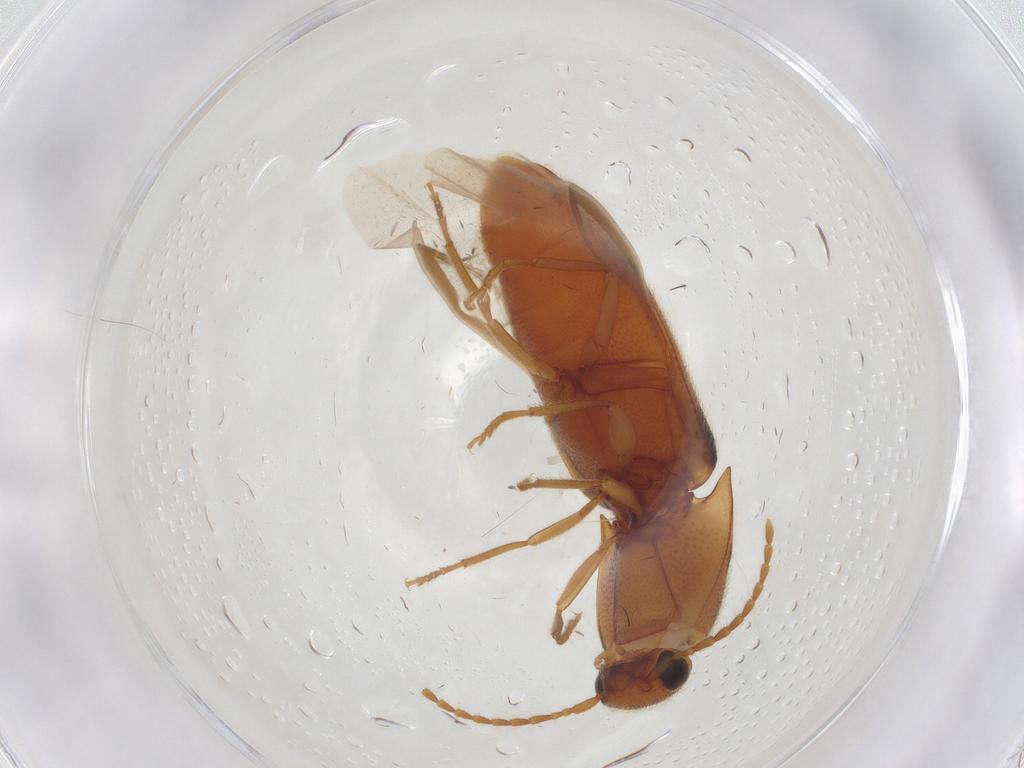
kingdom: Animalia
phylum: Arthropoda
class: Insecta
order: Coleoptera
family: Elateridae
